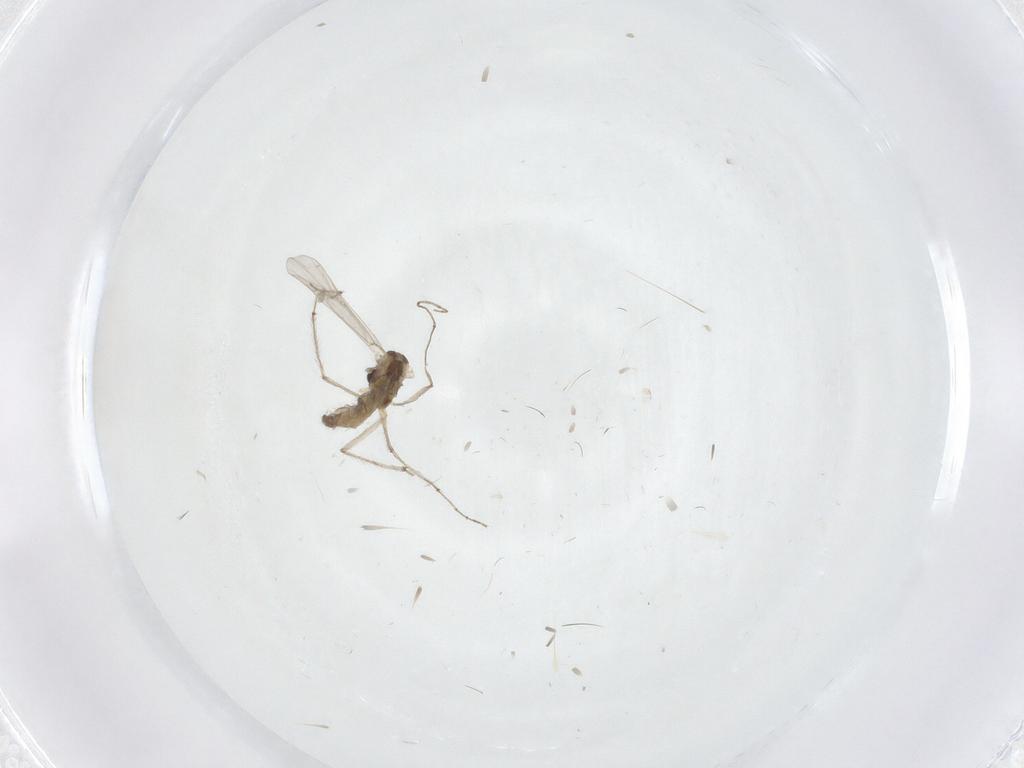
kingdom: Animalia
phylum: Arthropoda
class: Insecta
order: Diptera
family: Chironomidae
